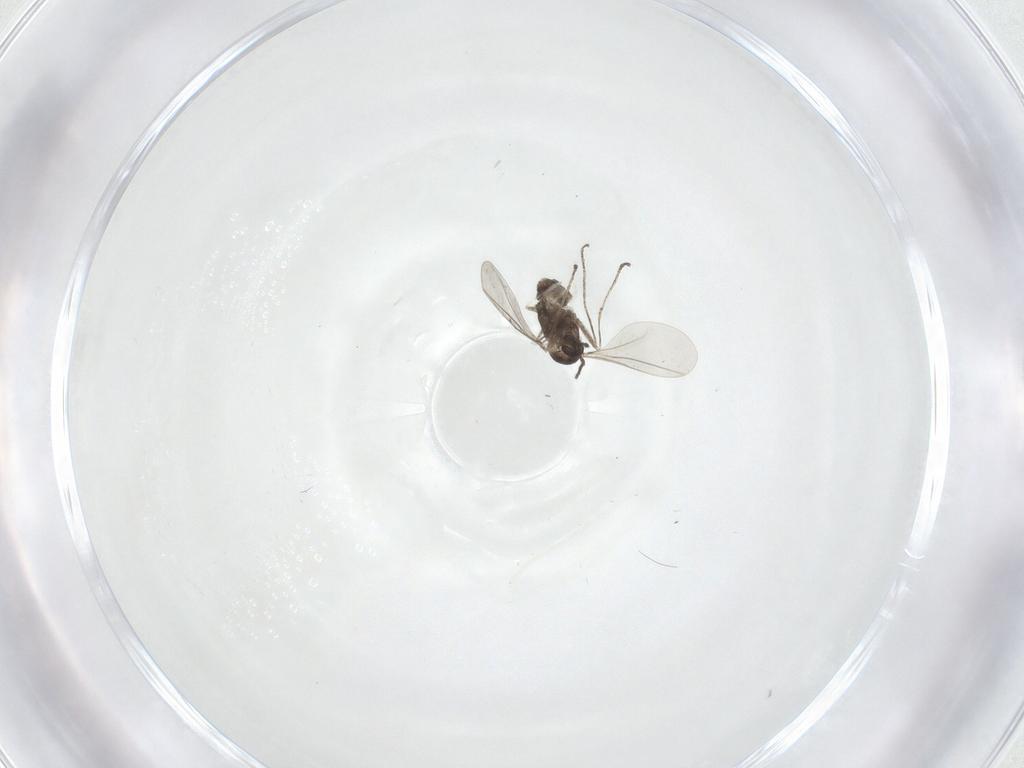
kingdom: Animalia
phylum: Arthropoda
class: Insecta
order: Diptera
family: Cecidomyiidae
